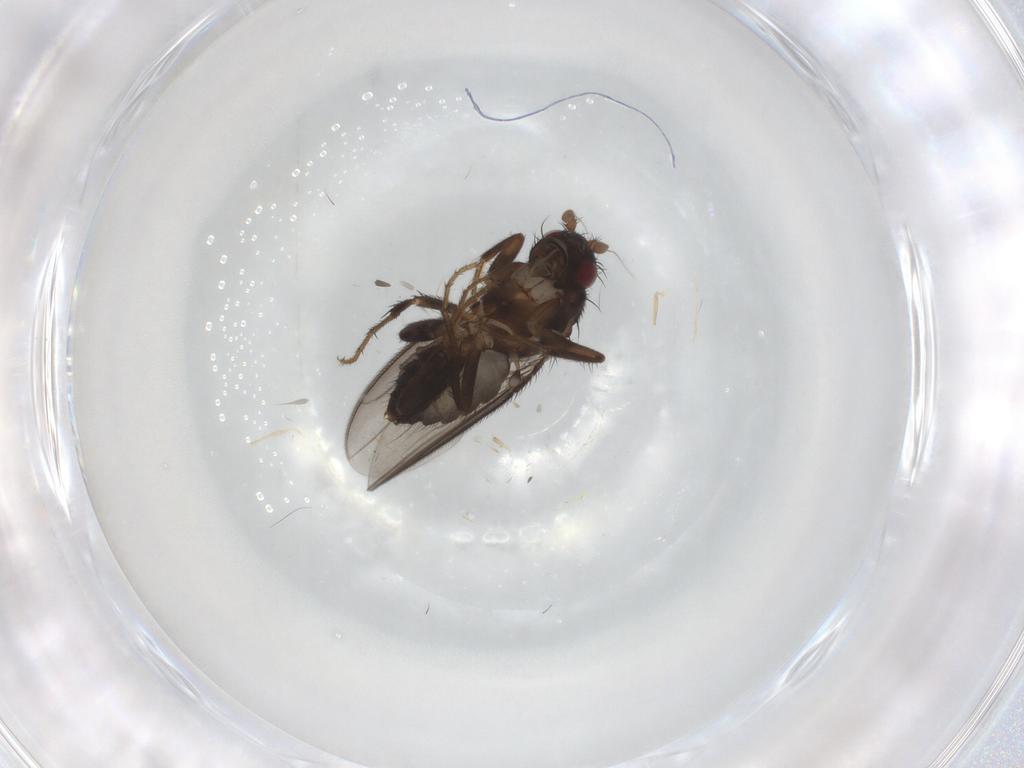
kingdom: Animalia
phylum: Arthropoda
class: Insecta
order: Diptera
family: Sphaeroceridae
